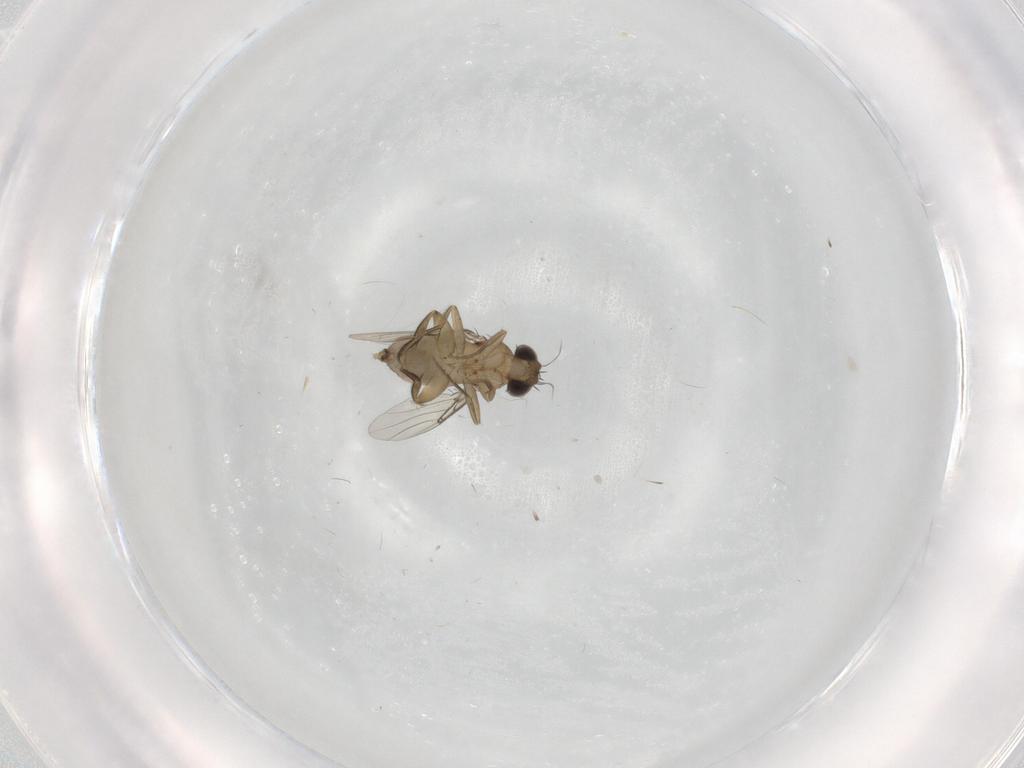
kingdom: Animalia
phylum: Arthropoda
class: Insecta
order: Diptera
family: Phoridae
